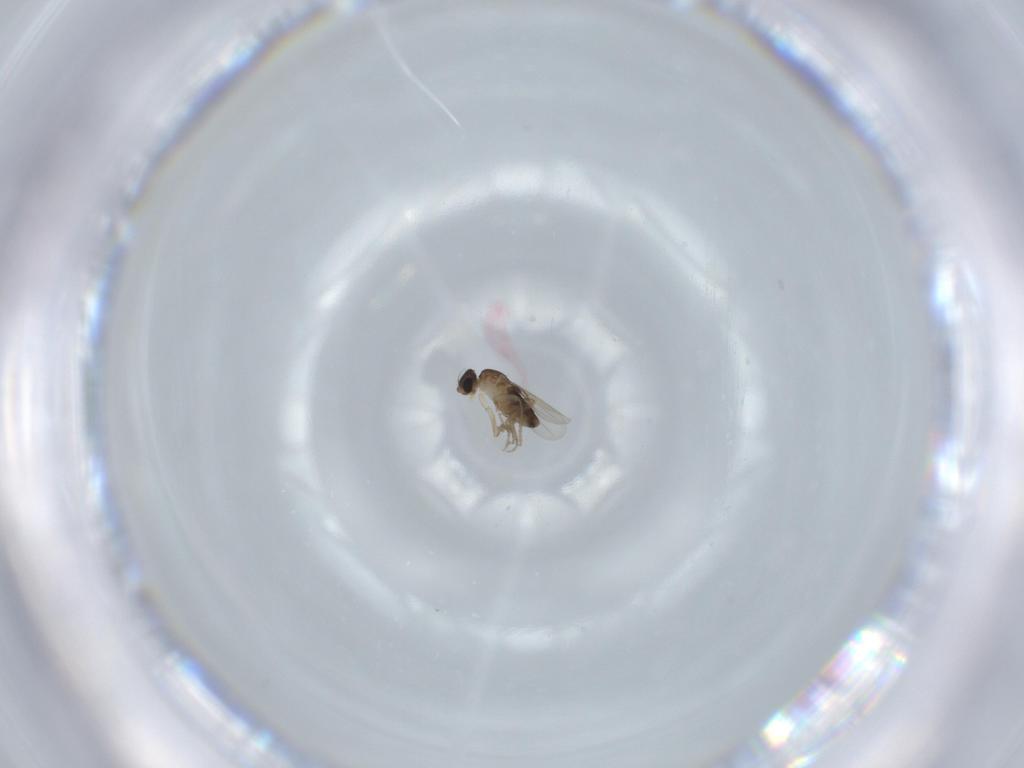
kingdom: Animalia
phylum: Arthropoda
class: Insecta
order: Diptera
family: Phoridae
